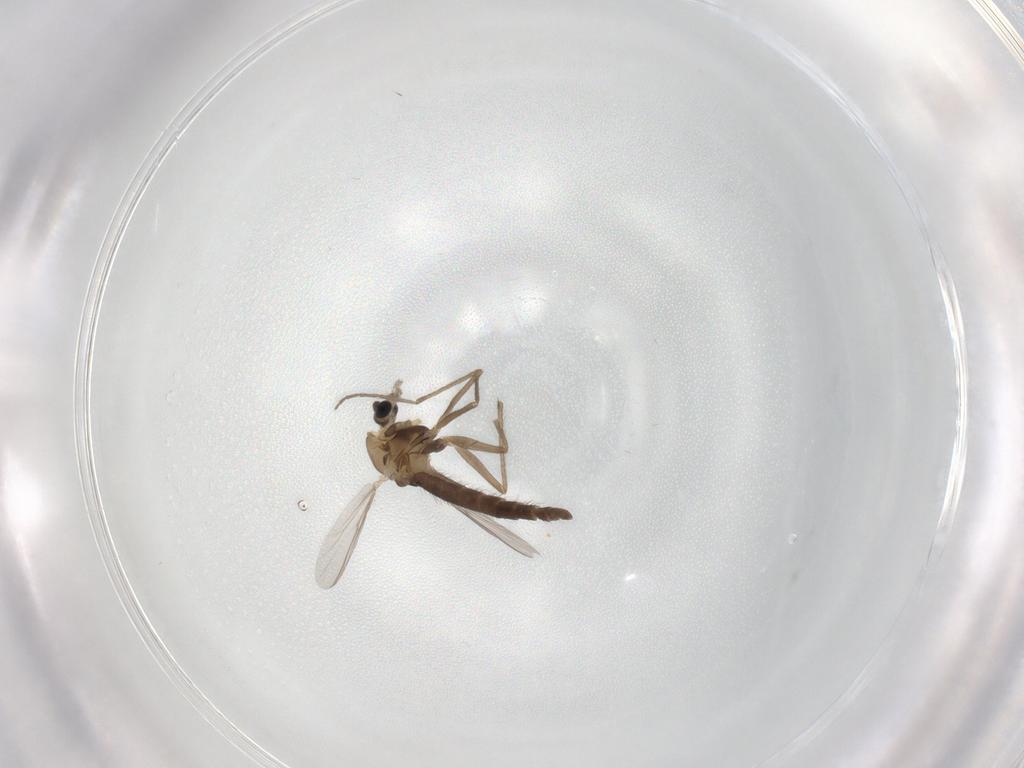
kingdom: Animalia
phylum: Arthropoda
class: Insecta
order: Diptera
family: Chironomidae
